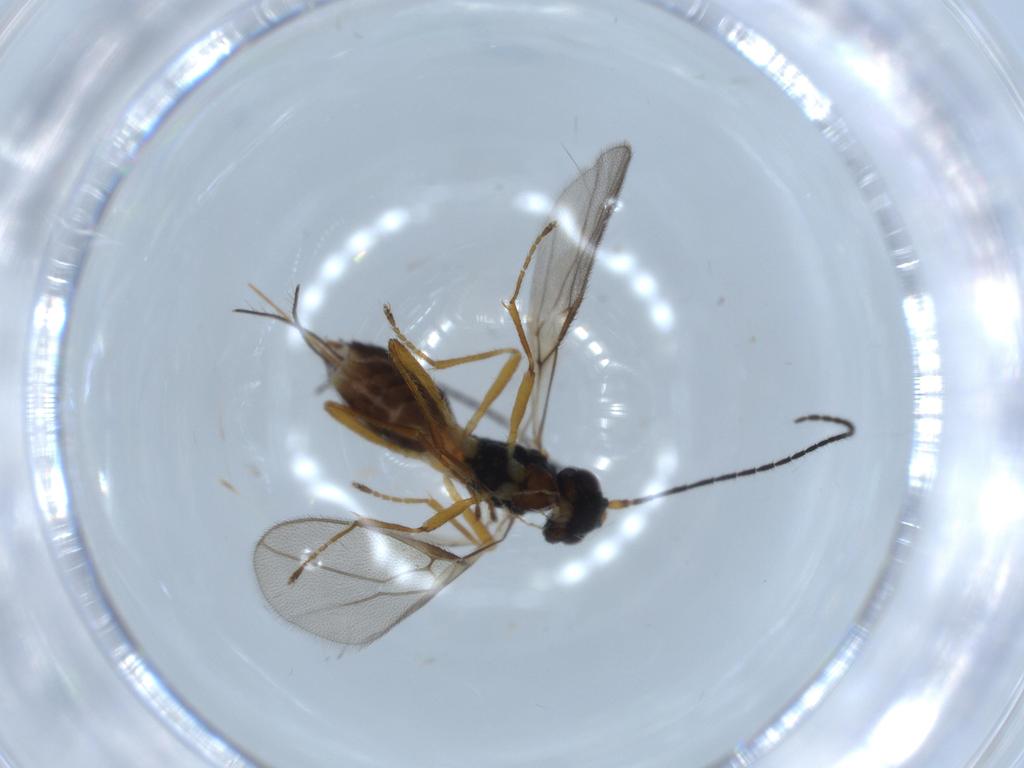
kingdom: Animalia
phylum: Arthropoda
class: Insecta
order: Hymenoptera
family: Braconidae
